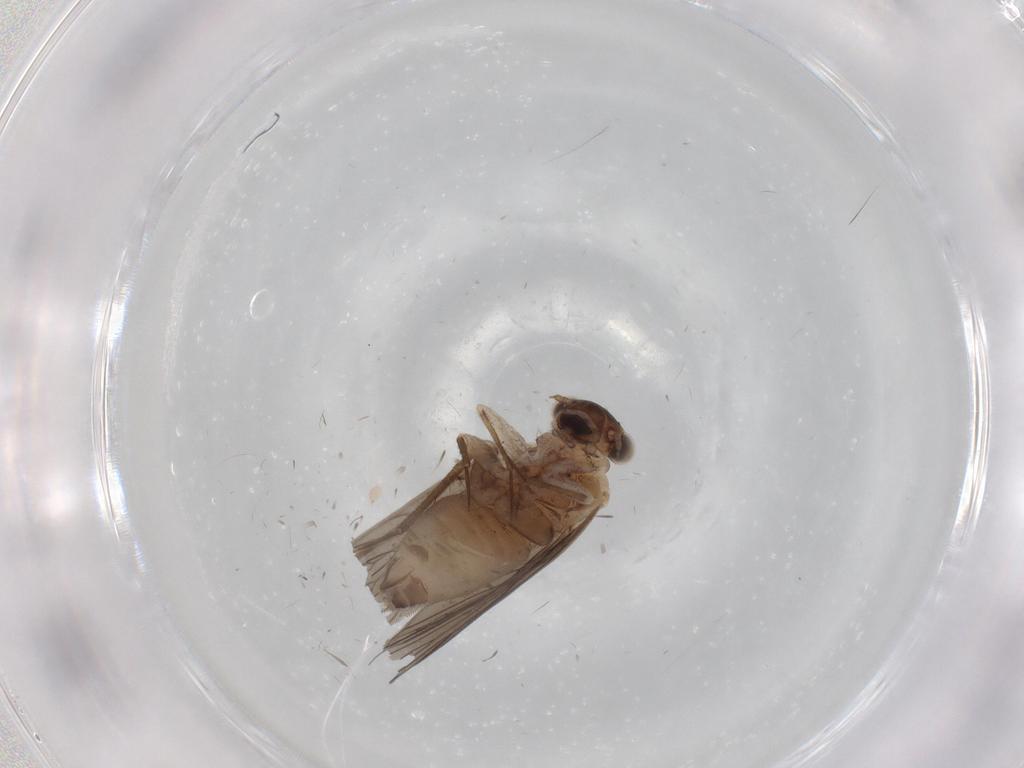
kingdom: Animalia
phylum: Arthropoda
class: Insecta
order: Psocodea
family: Lepidopsocidae
